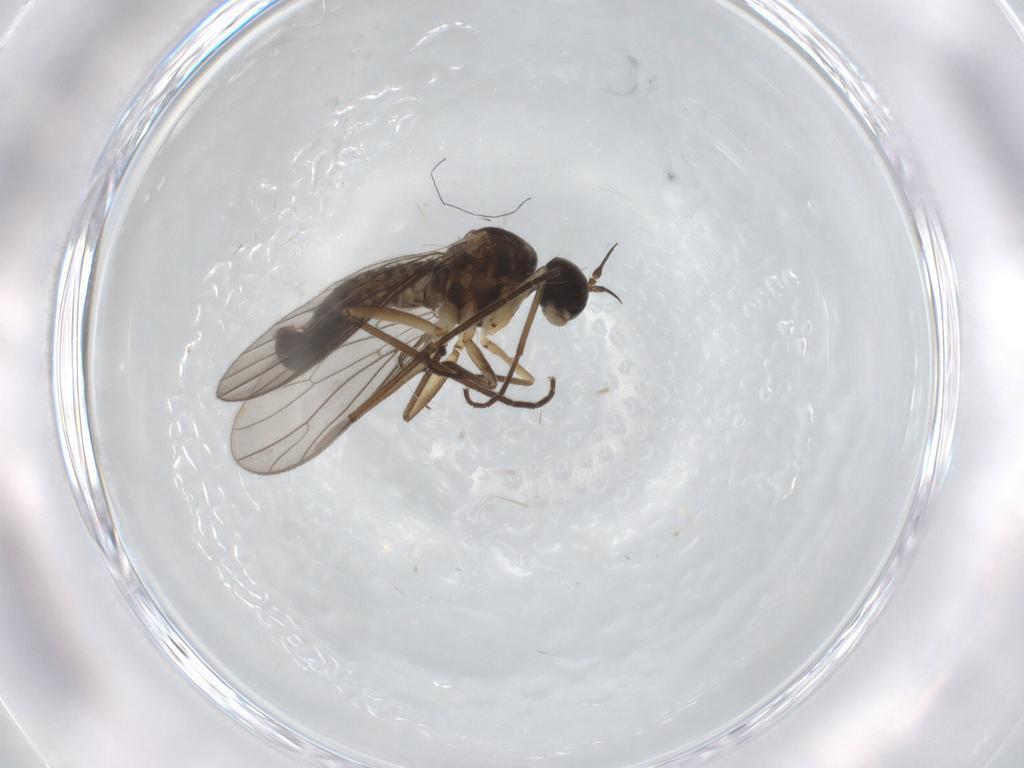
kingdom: Animalia
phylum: Arthropoda
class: Insecta
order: Diptera
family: Empididae
